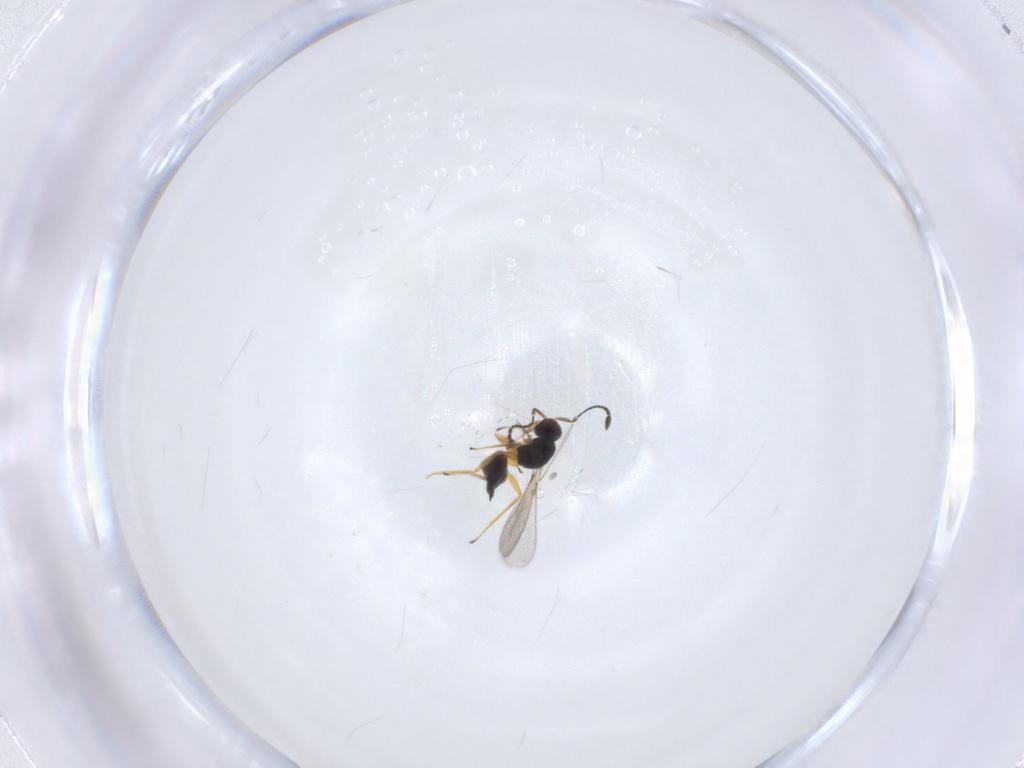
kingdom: Animalia
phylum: Arthropoda
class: Insecta
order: Hymenoptera
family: Mymaridae
